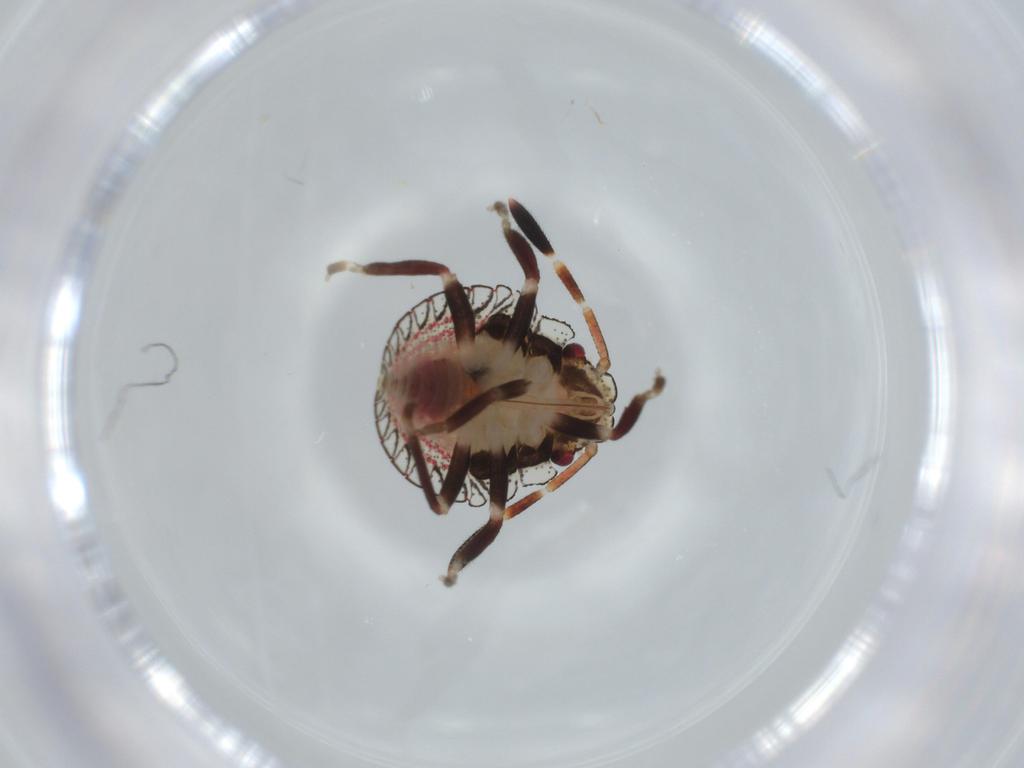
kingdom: Animalia
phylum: Arthropoda
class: Insecta
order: Hemiptera
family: Pentatomidae
